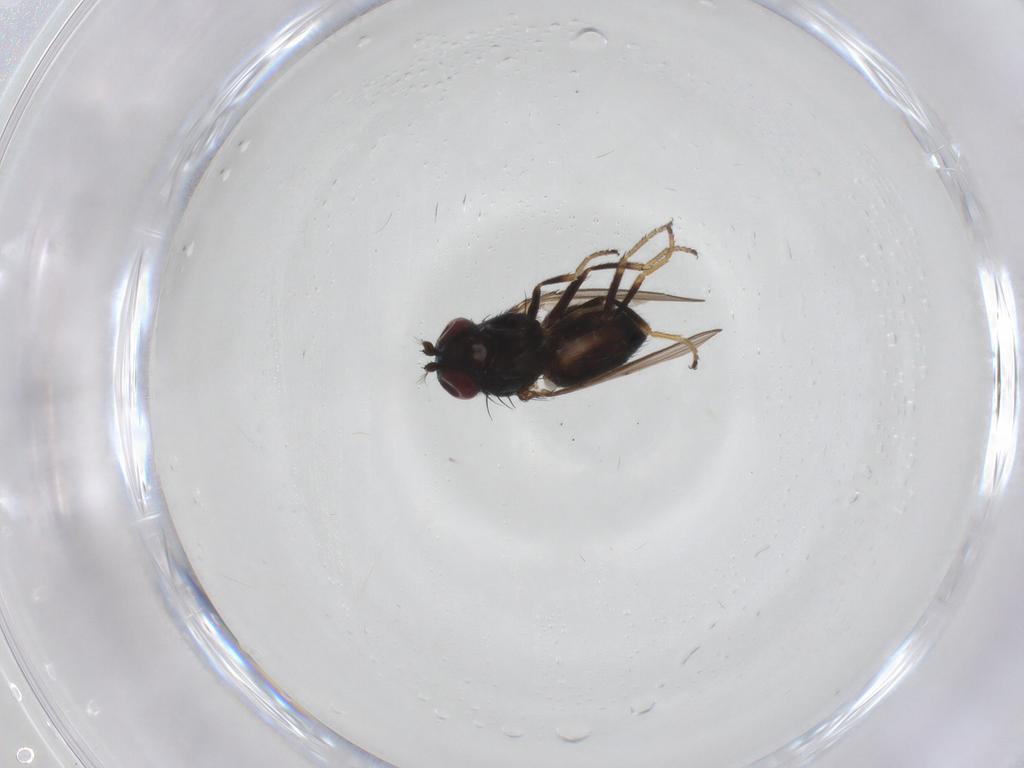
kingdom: Animalia
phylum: Arthropoda
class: Insecta
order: Diptera
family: Ephydridae
